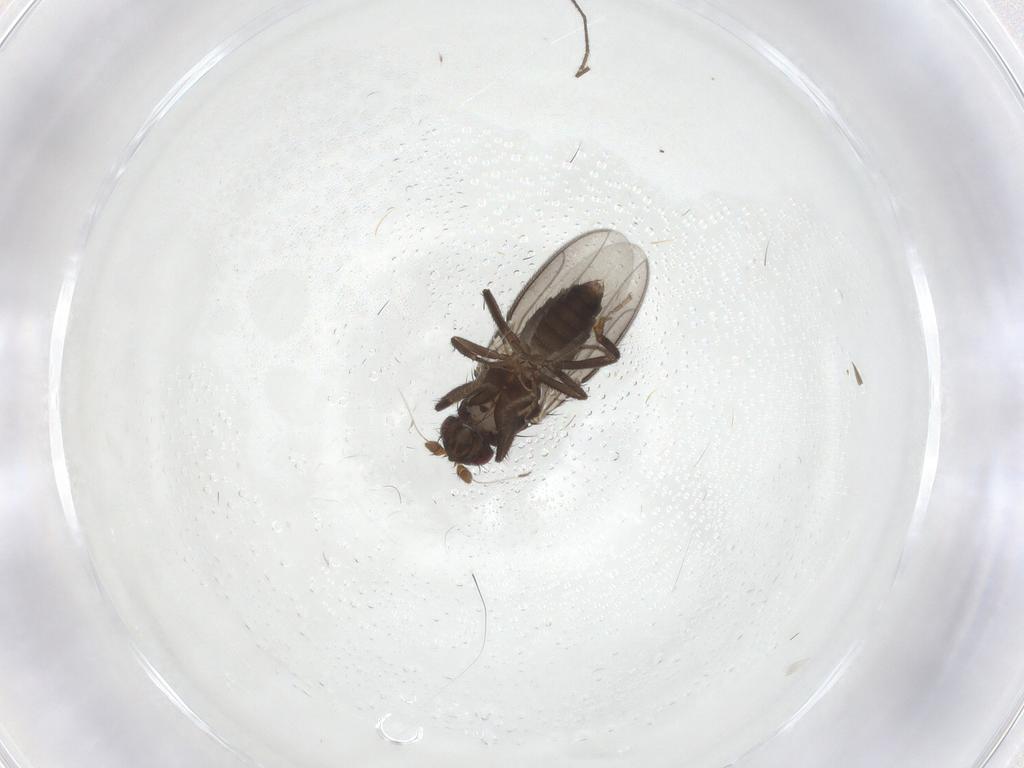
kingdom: Animalia
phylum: Arthropoda
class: Insecta
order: Diptera
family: Sphaeroceridae
